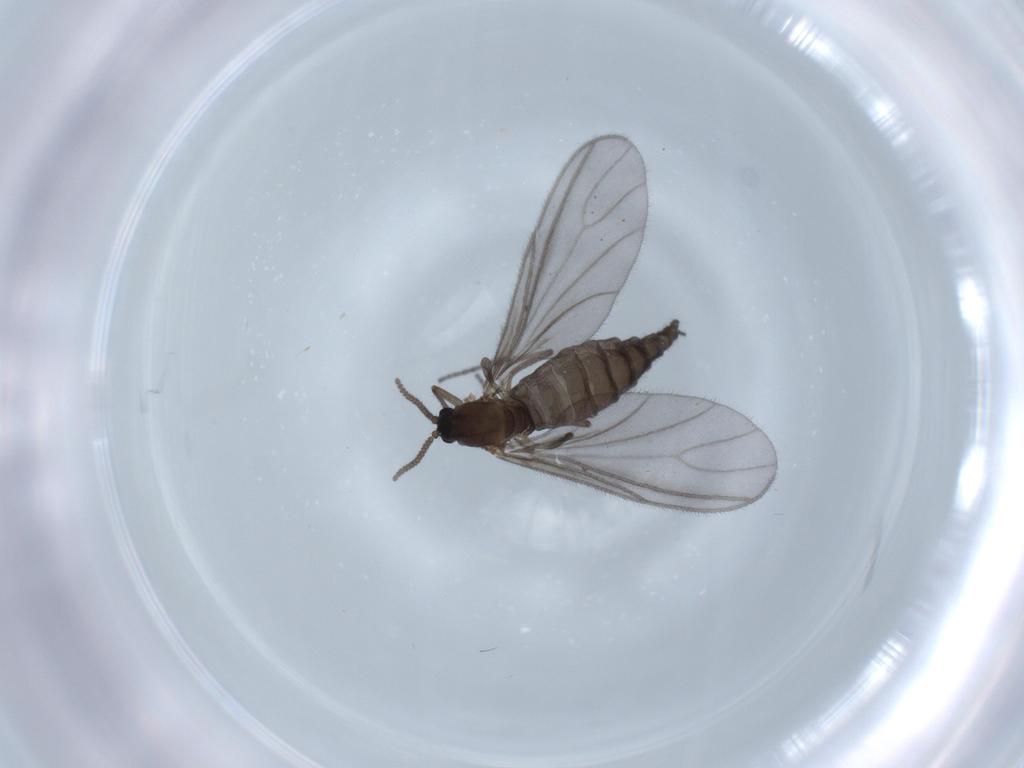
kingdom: Animalia
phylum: Arthropoda
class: Insecta
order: Diptera
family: Sciaridae
